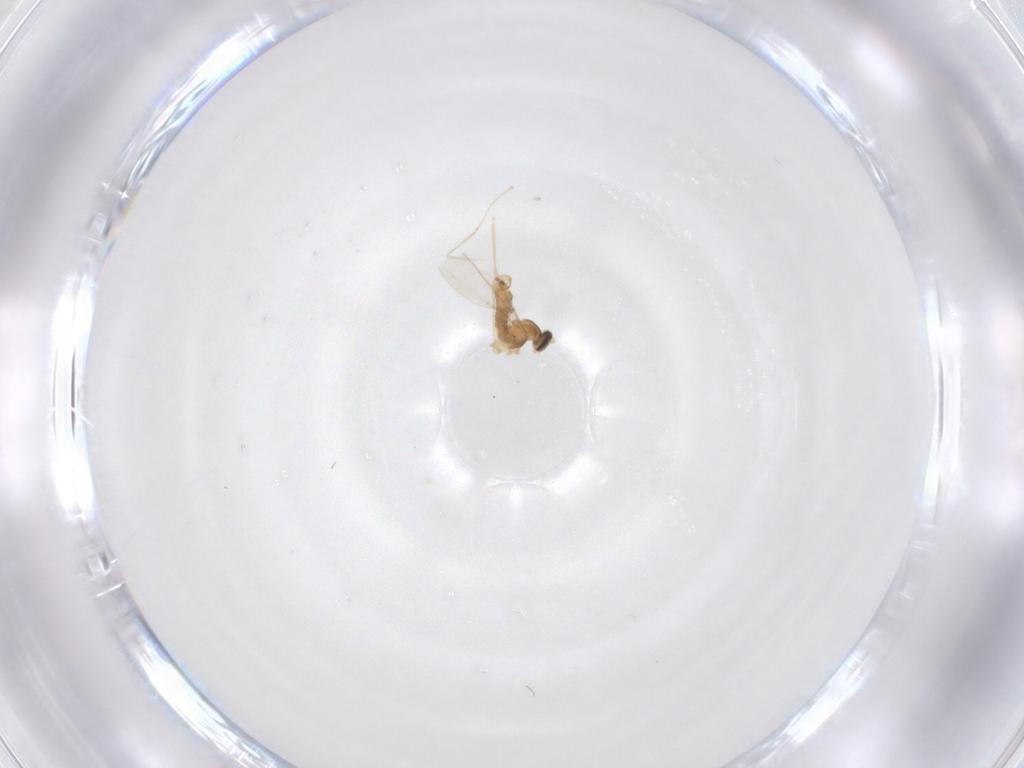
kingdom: Animalia
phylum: Arthropoda
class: Insecta
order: Diptera
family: Cecidomyiidae
